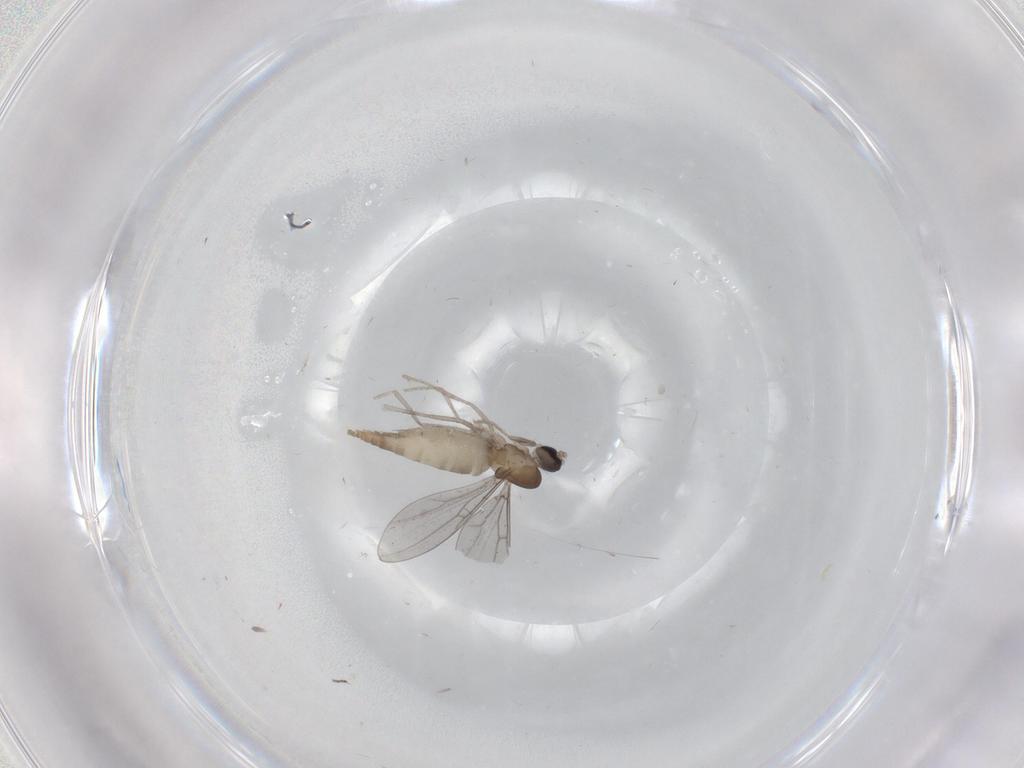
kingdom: Animalia
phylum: Arthropoda
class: Insecta
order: Diptera
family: Cecidomyiidae
